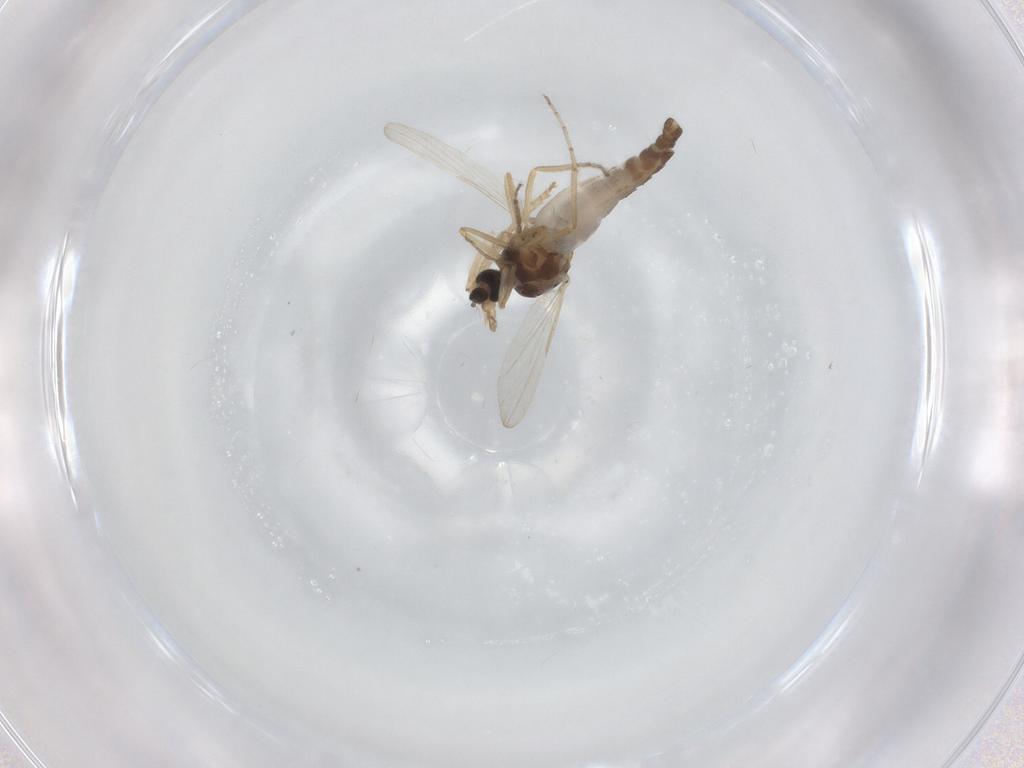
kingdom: Animalia
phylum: Arthropoda
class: Insecta
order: Diptera
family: Ceratopogonidae
